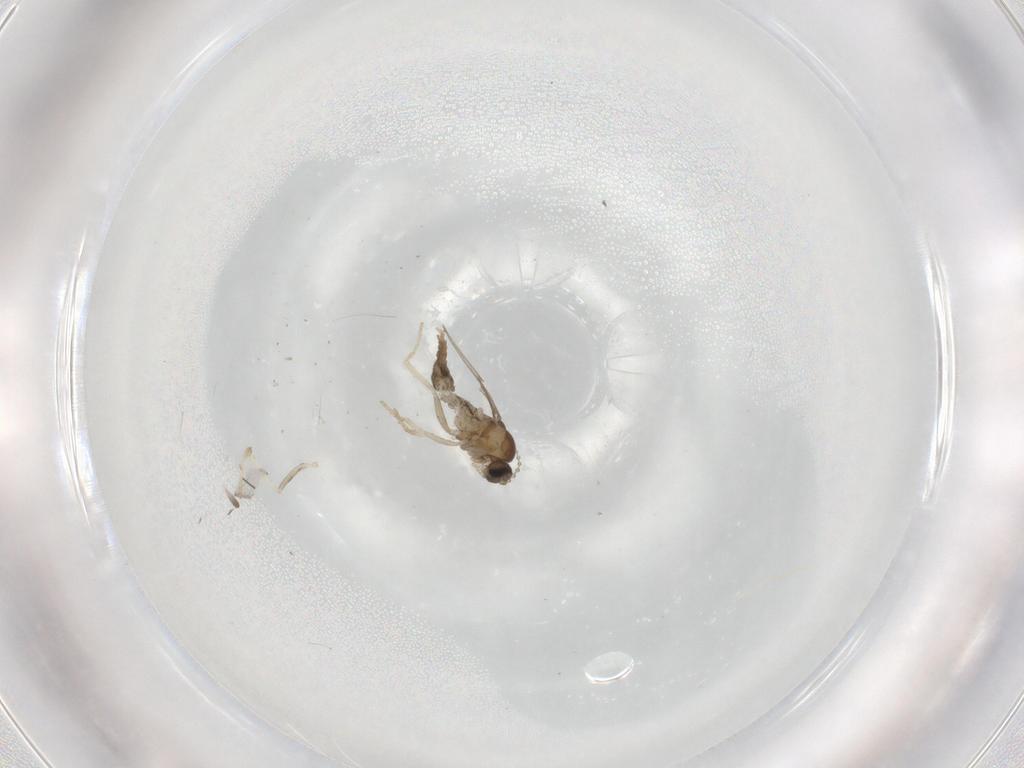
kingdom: Animalia
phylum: Arthropoda
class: Insecta
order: Diptera
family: Cecidomyiidae
